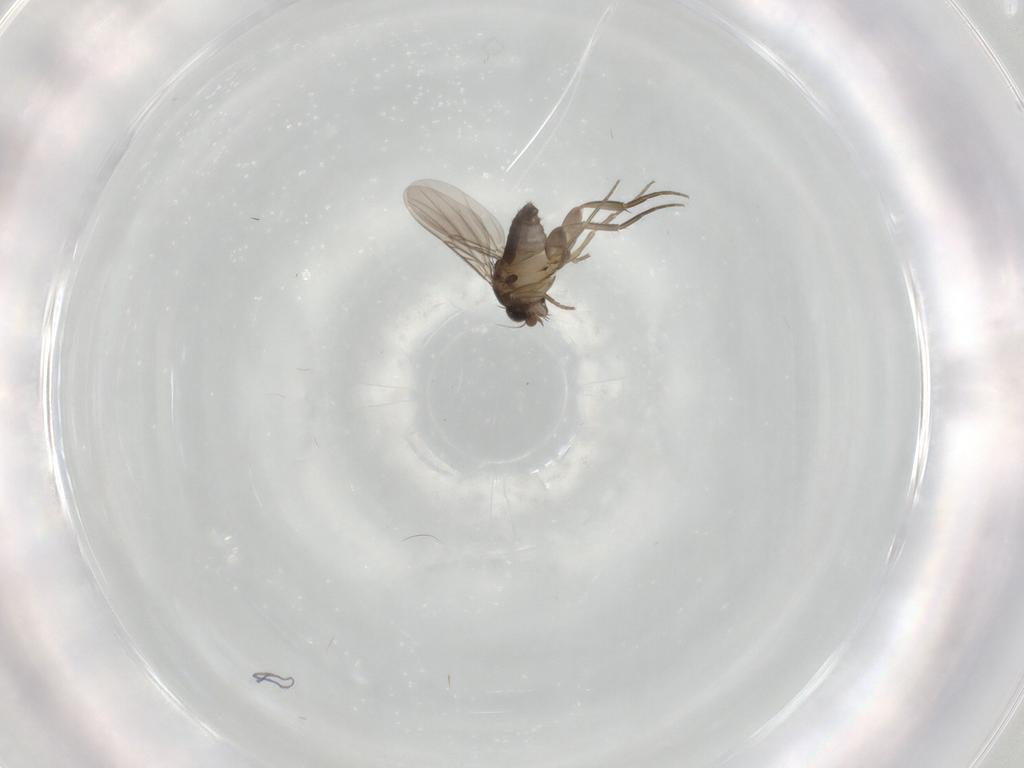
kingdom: Animalia
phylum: Arthropoda
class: Insecta
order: Diptera
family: Phoridae
